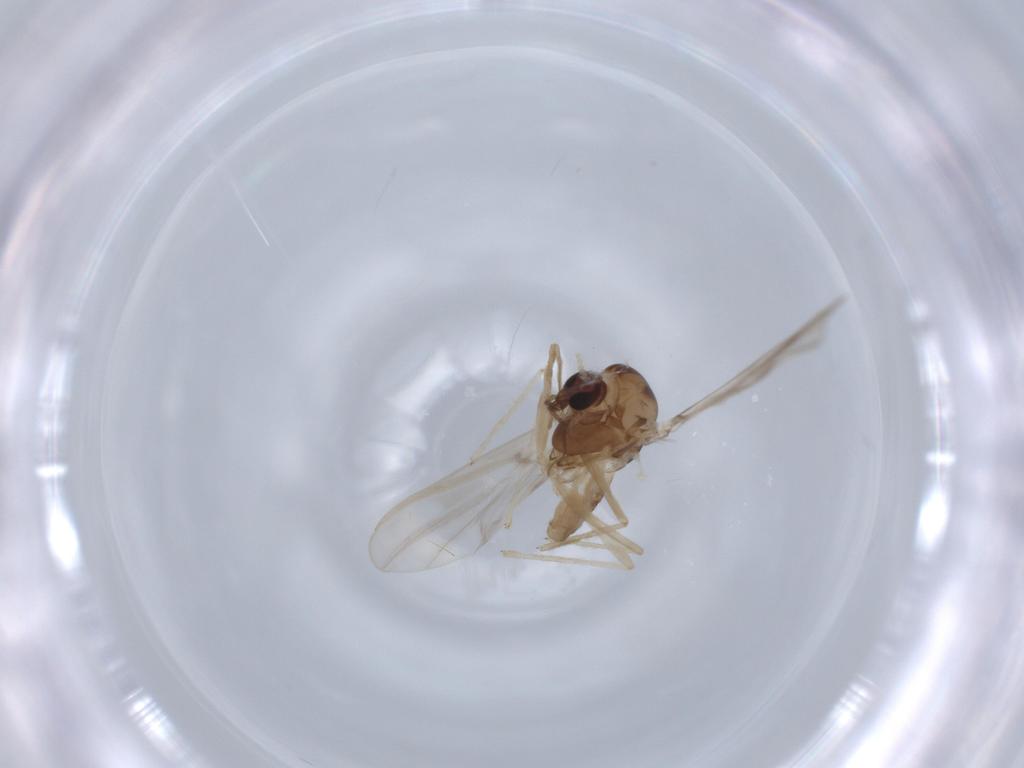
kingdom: Animalia
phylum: Arthropoda
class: Insecta
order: Diptera
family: Chironomidae
